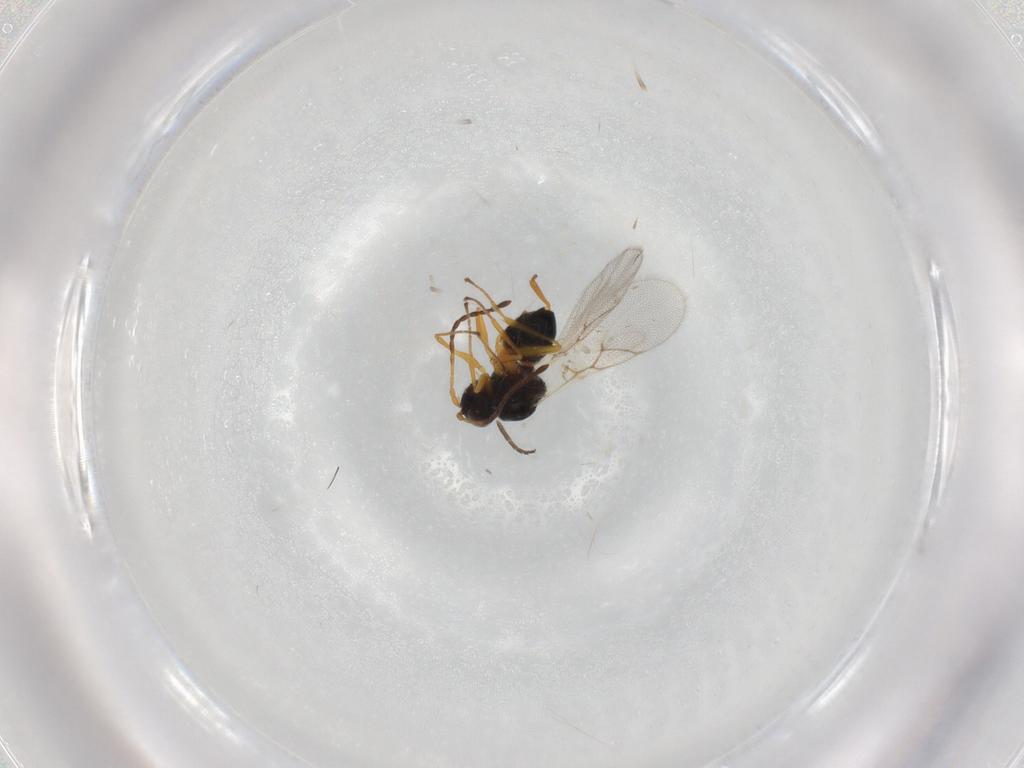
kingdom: Animalia
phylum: Arthropoda
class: Insecta
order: Hymenoptera
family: Figitidae
